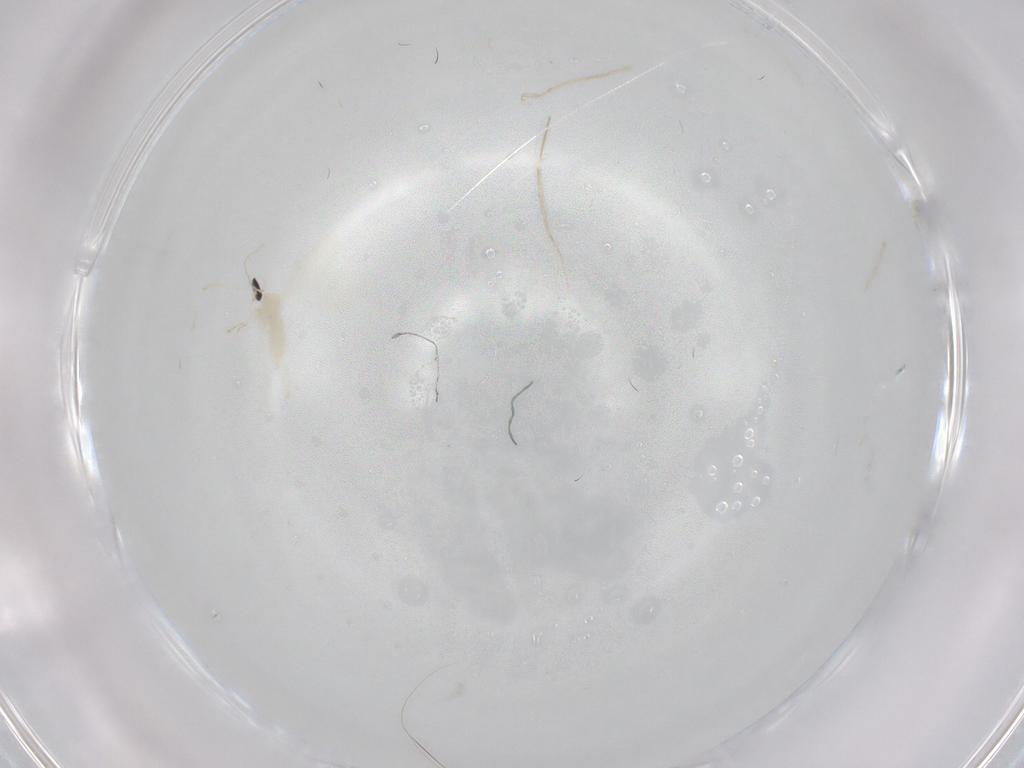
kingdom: Animalia
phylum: Arthropoda
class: Insecta
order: Diptera
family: Cecidomyiidae
